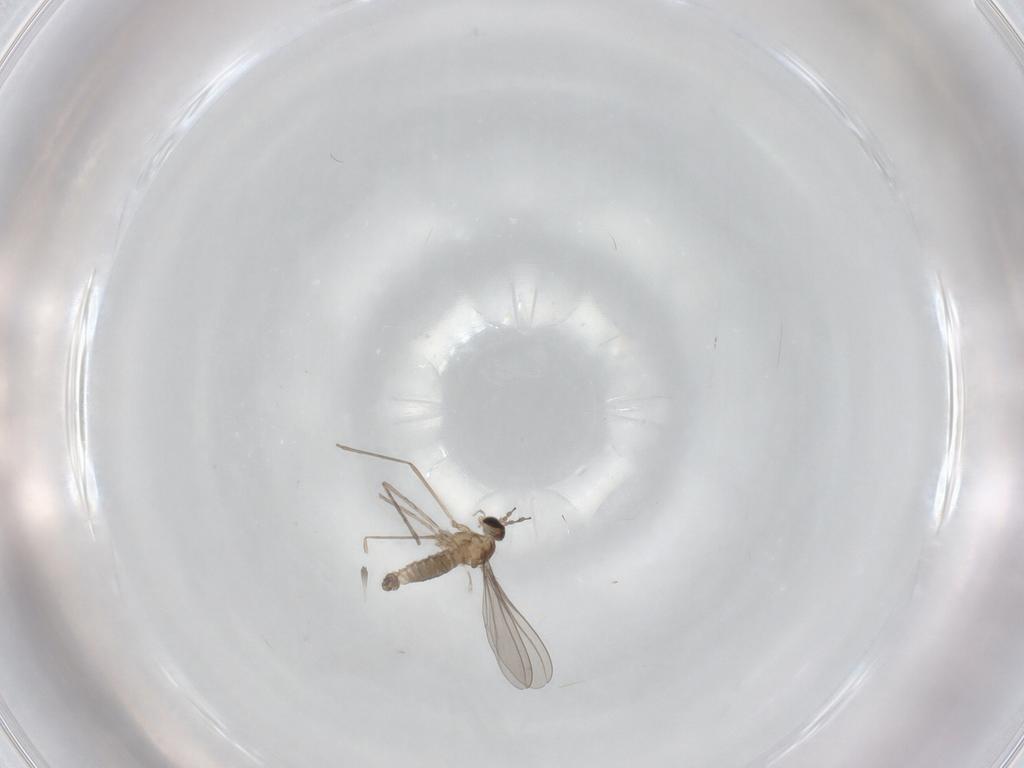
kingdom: Animalia
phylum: Arthropoda
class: Insecta
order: Diptera
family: Cecidomyiidae
